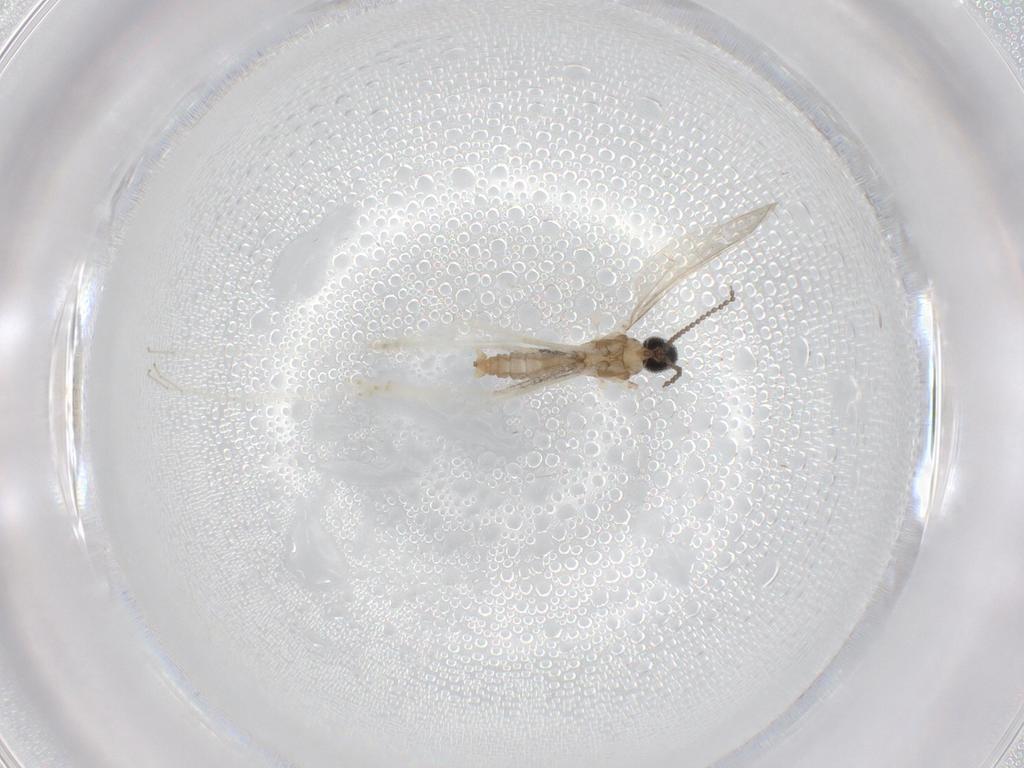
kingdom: Animalia
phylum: Arthropoda
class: Insecta
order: Diptera
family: Cecidomyiidae
